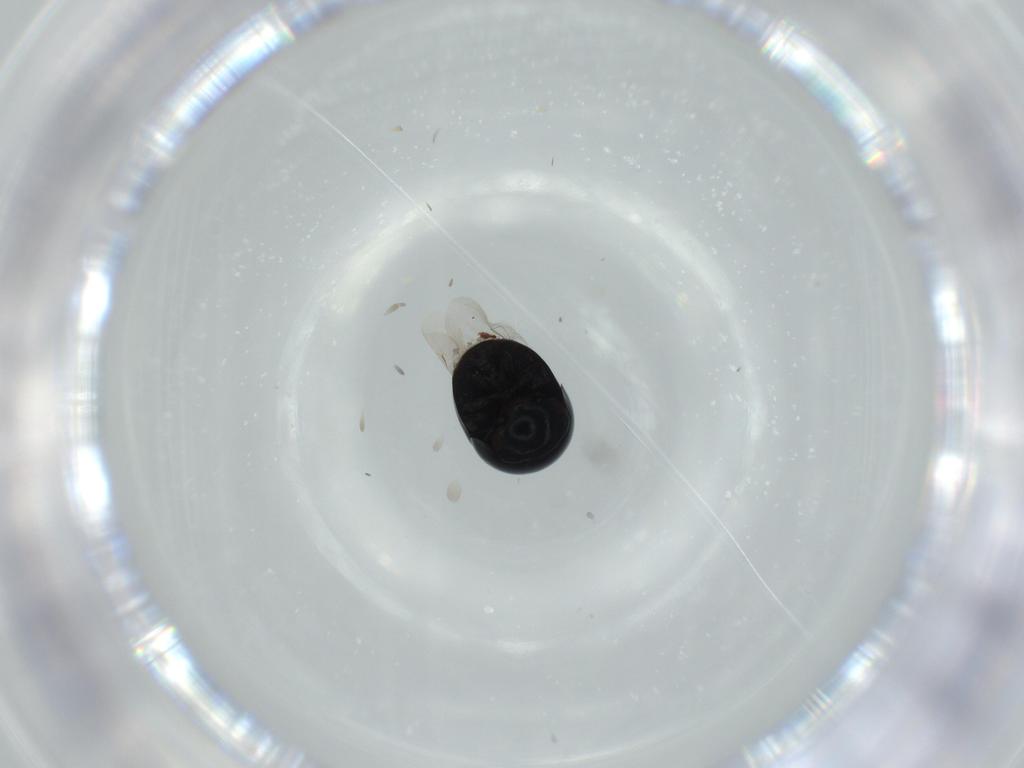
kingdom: Animalia
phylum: Arthropoda
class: Insecta
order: Coleoptera
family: Cybocephalidae
